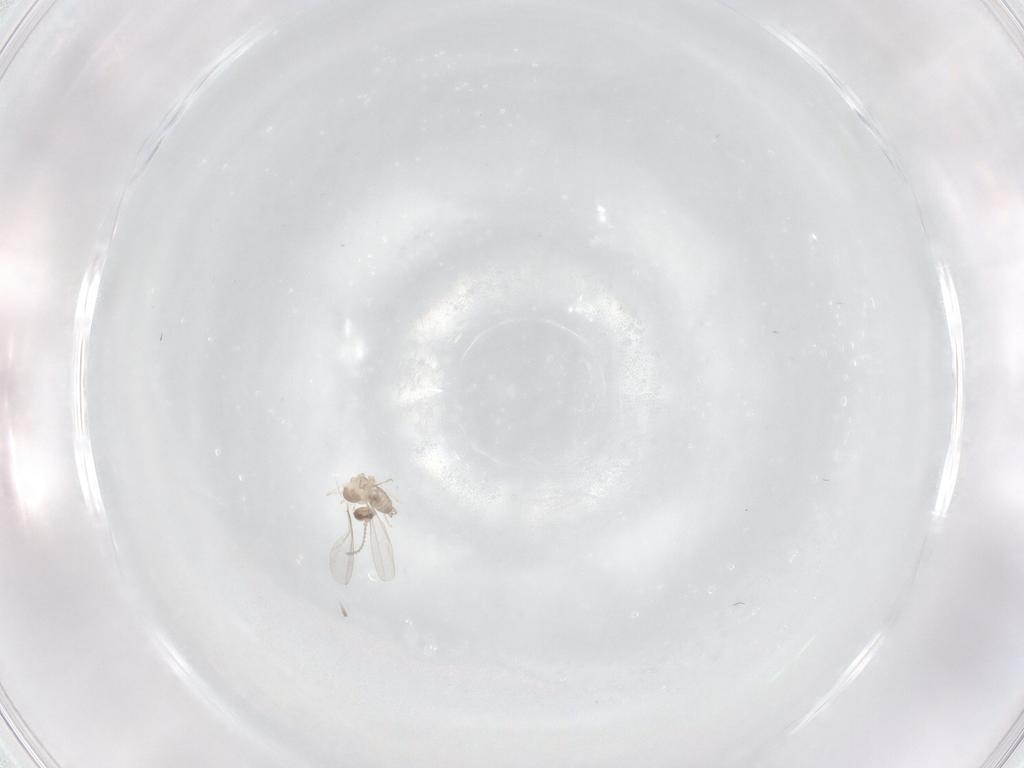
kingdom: Animalia
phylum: Arthropoda
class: Insecta
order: Diptera
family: Cecidomyiidae
